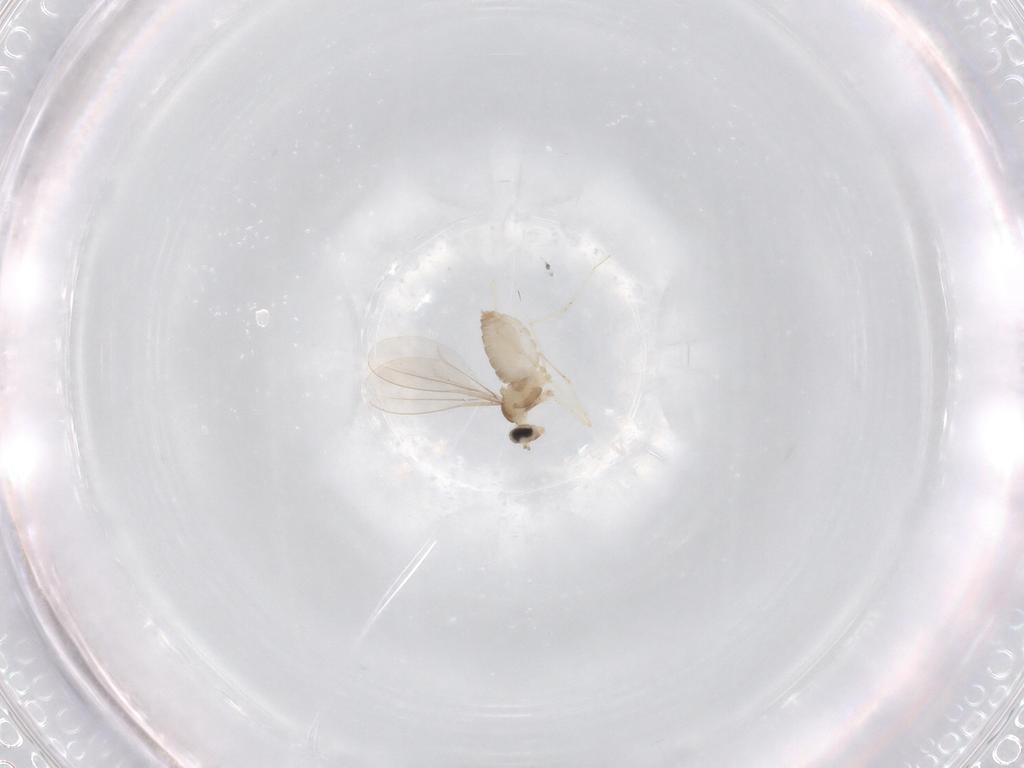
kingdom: Animalia
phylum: Arthropoda
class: Insecta
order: Diptera
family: Cecidomyiidae
